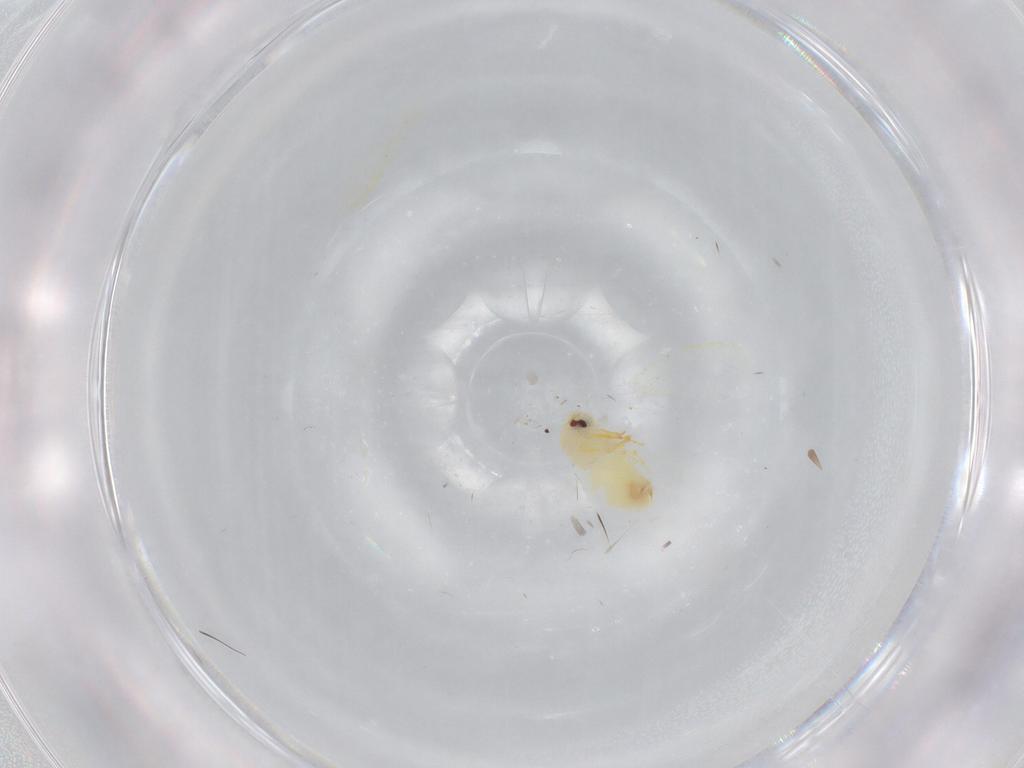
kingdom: Animalia
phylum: Arthropoda
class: Insecta
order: Hemiptera
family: Aleyrodidae
